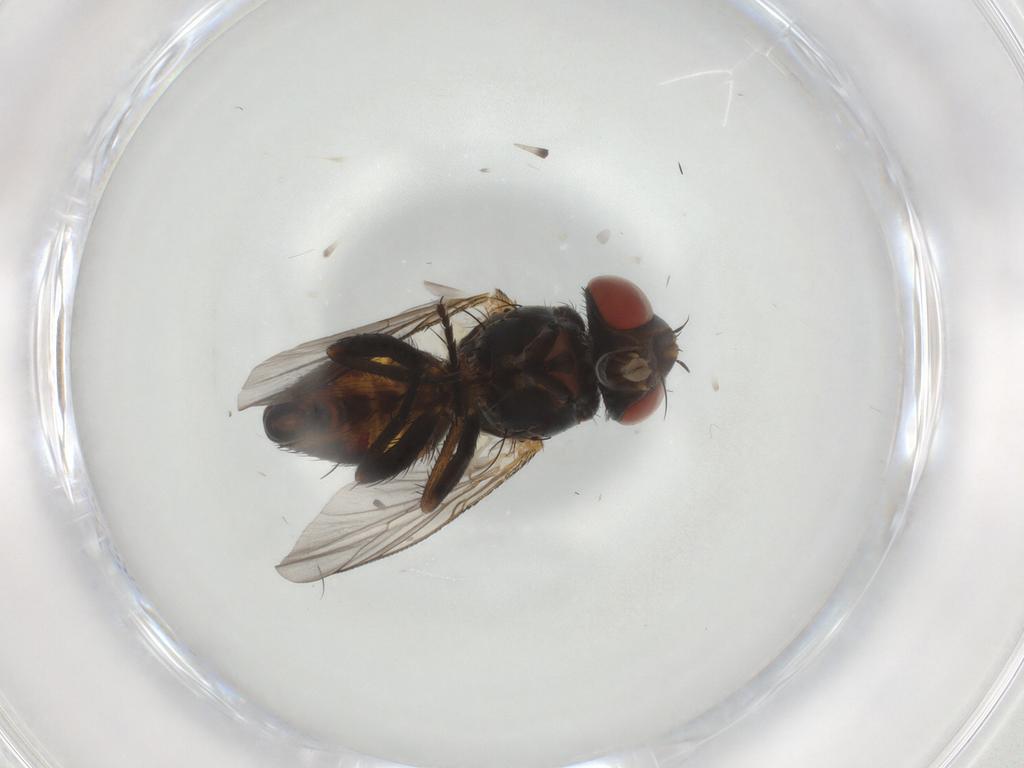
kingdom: Animalia
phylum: Arthropoda
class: Insecta
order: Diptera
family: Sarcophagidae
